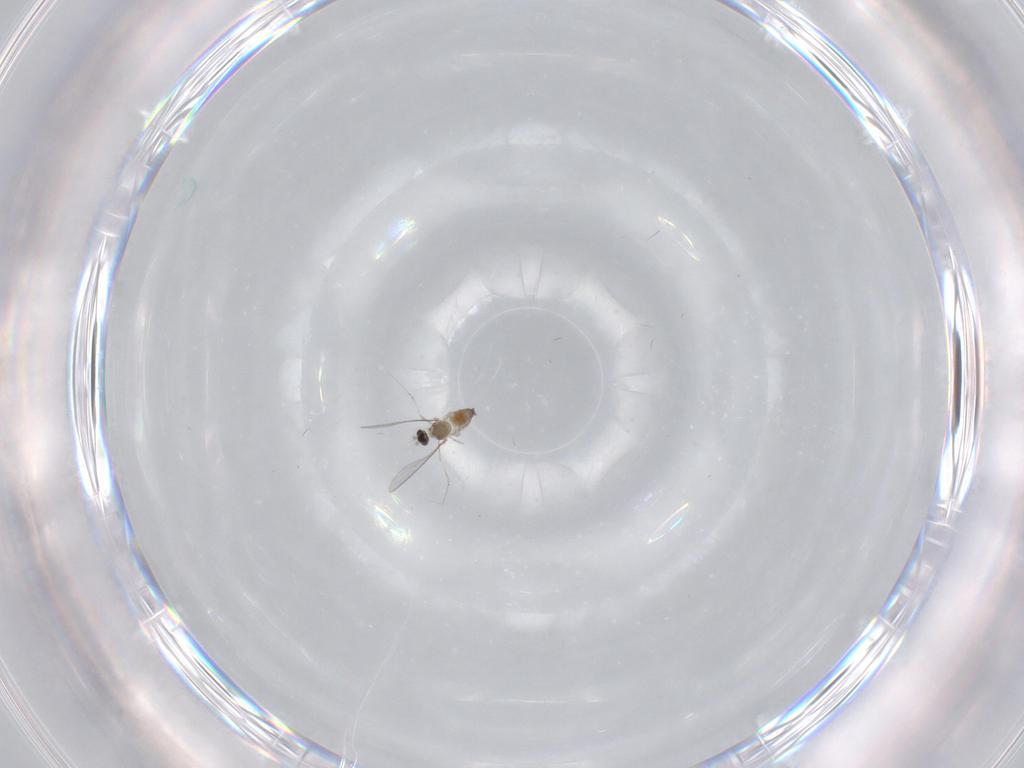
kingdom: Animalia
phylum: Arthropoda
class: Insecta
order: Diptera
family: Cecidomyiidae
